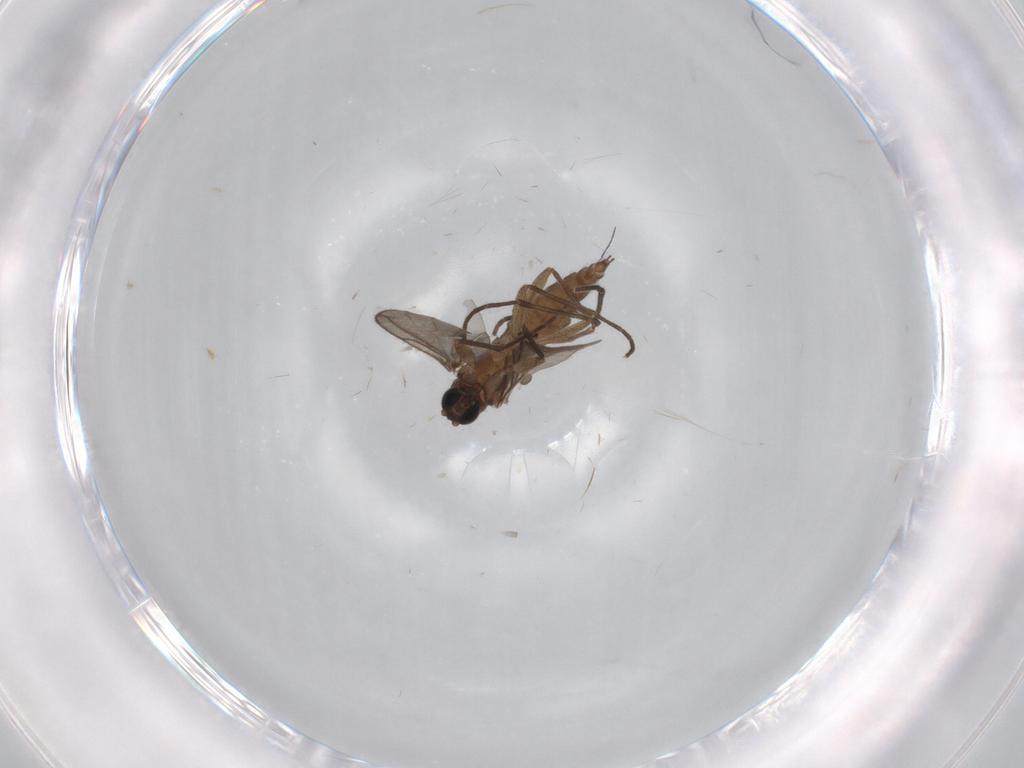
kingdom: Animalia
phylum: Arthropoda
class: Insecta
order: Diptera
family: Sciaridae
